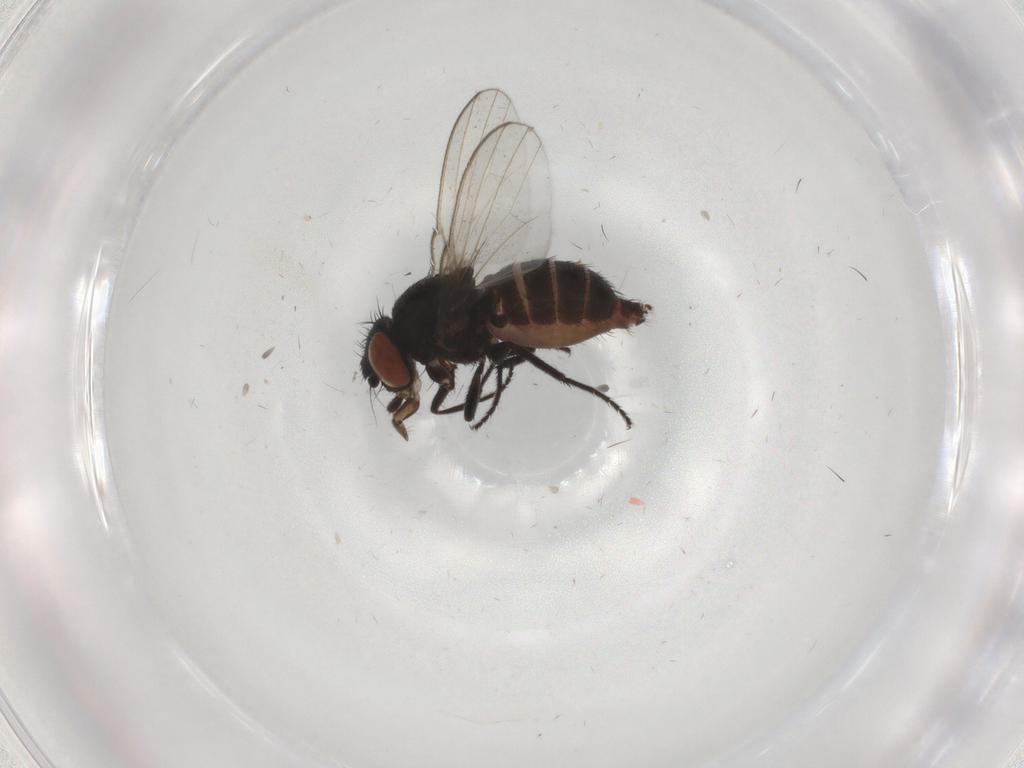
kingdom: Animalia
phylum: Arthropoda
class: Insecta
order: Diptera
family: Milichiidae
